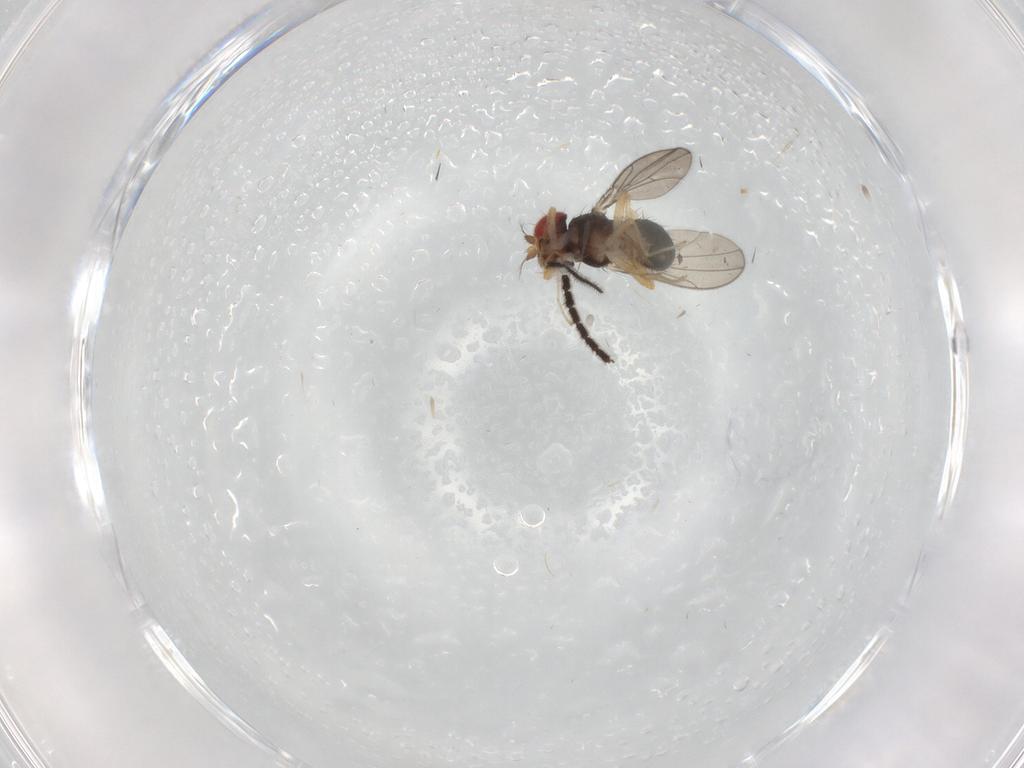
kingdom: Animalia
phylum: Arthropoda
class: Insecta
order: Diptera
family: Drosophilidae
